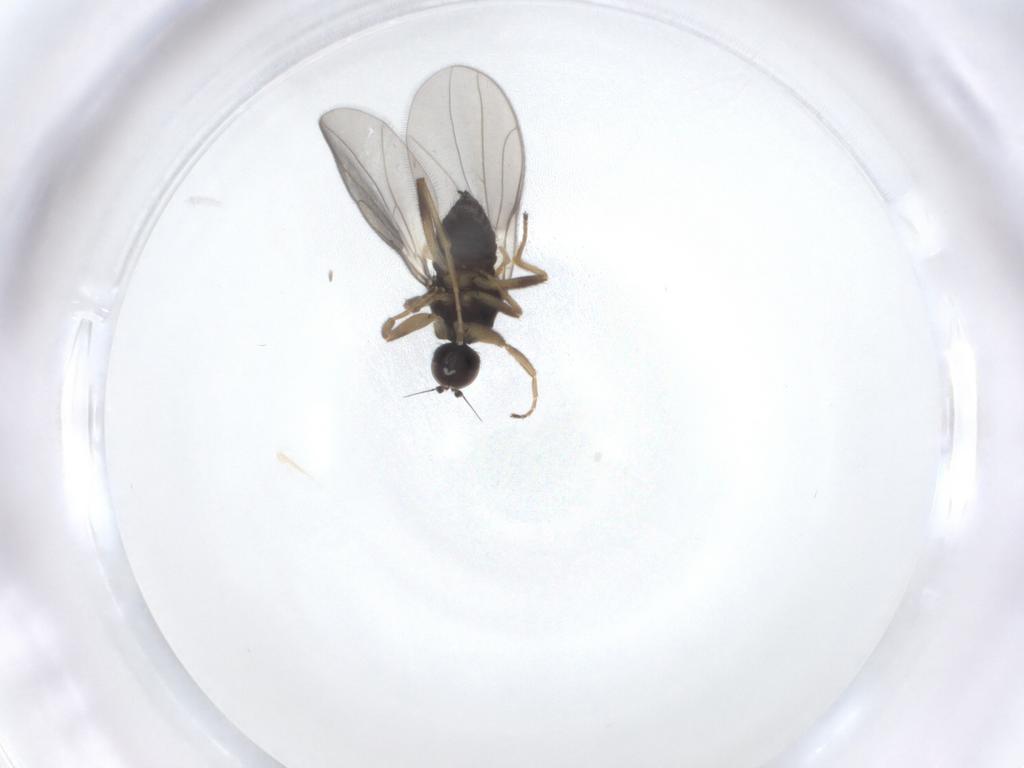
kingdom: Animalia
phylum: Arthropoda
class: Insecta
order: Diptera
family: Hybotidae
